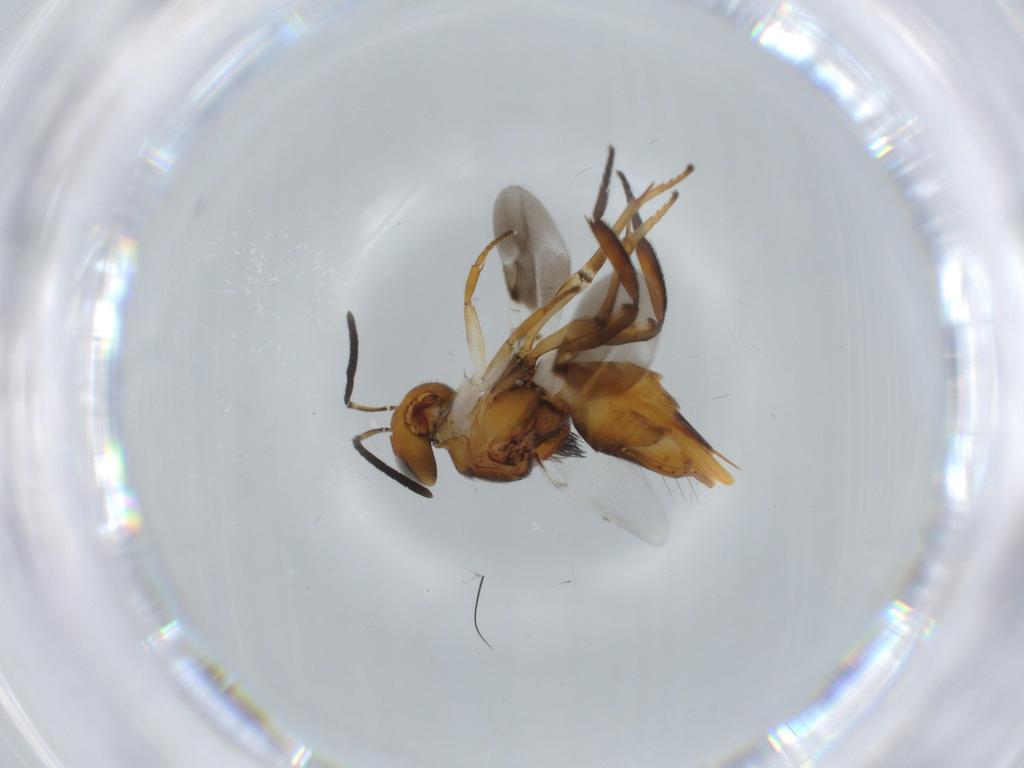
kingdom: Animalia
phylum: Arthropoda
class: Insecta
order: Hymenoptera
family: Encyrtidae
